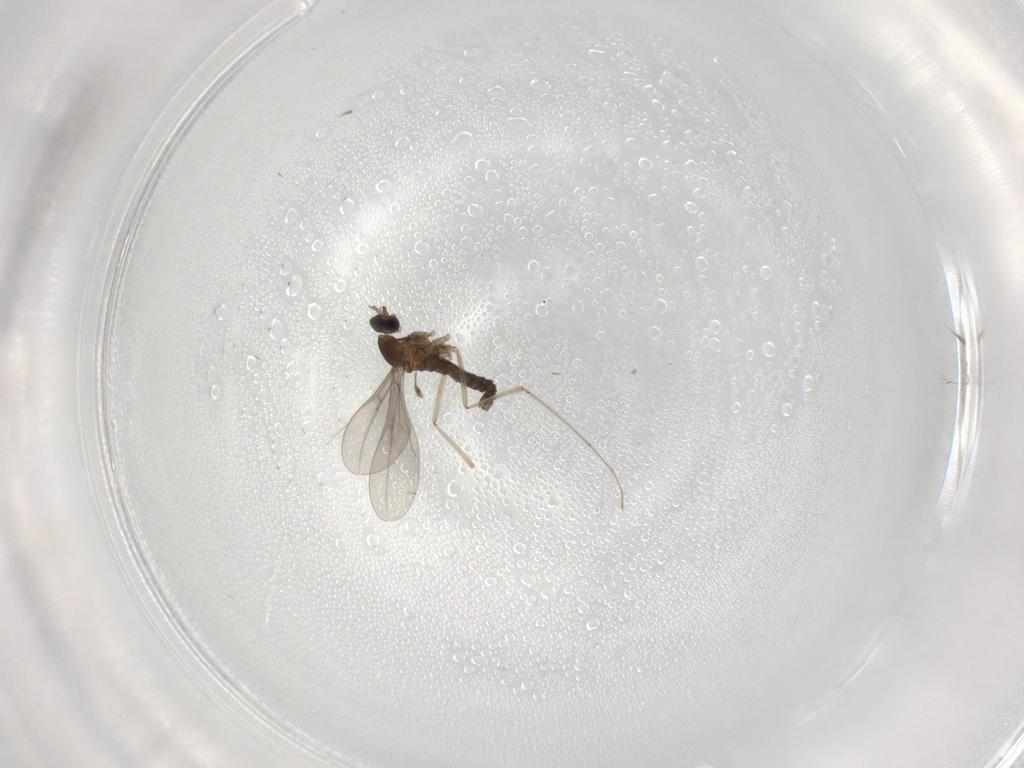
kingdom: Animalia
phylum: Arthropoda
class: Insecta
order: Diptera
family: Cecidomyiidae
